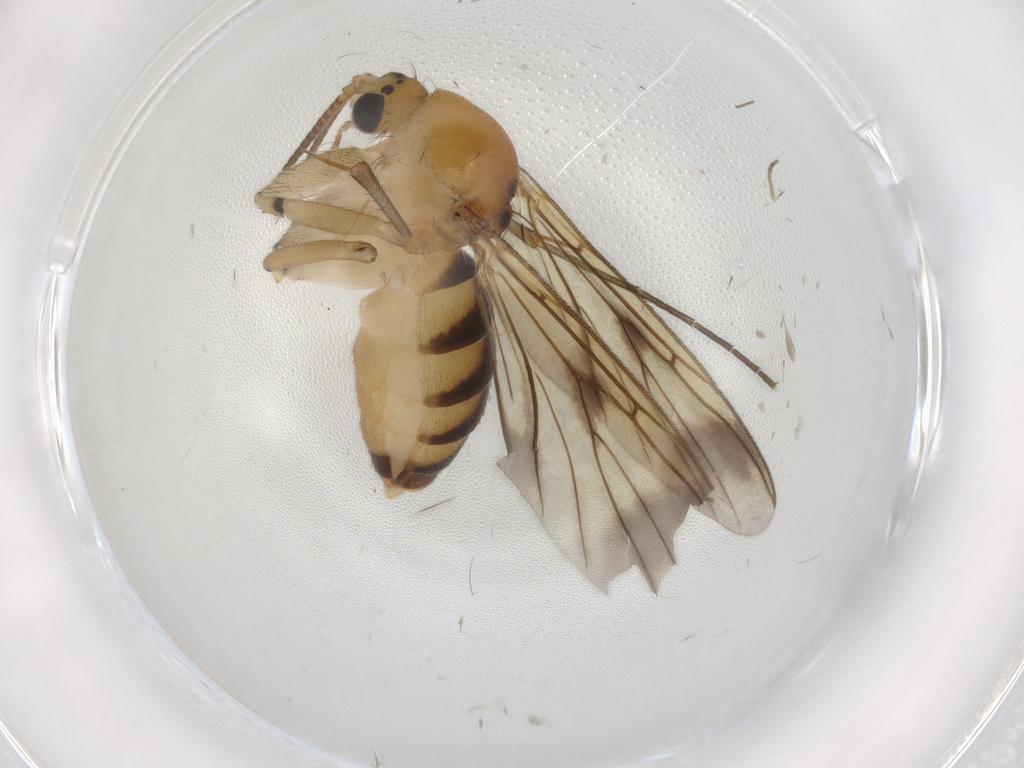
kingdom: Animalia
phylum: Arthropoda
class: Insecta
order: Diptera
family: Mycetophilidae
